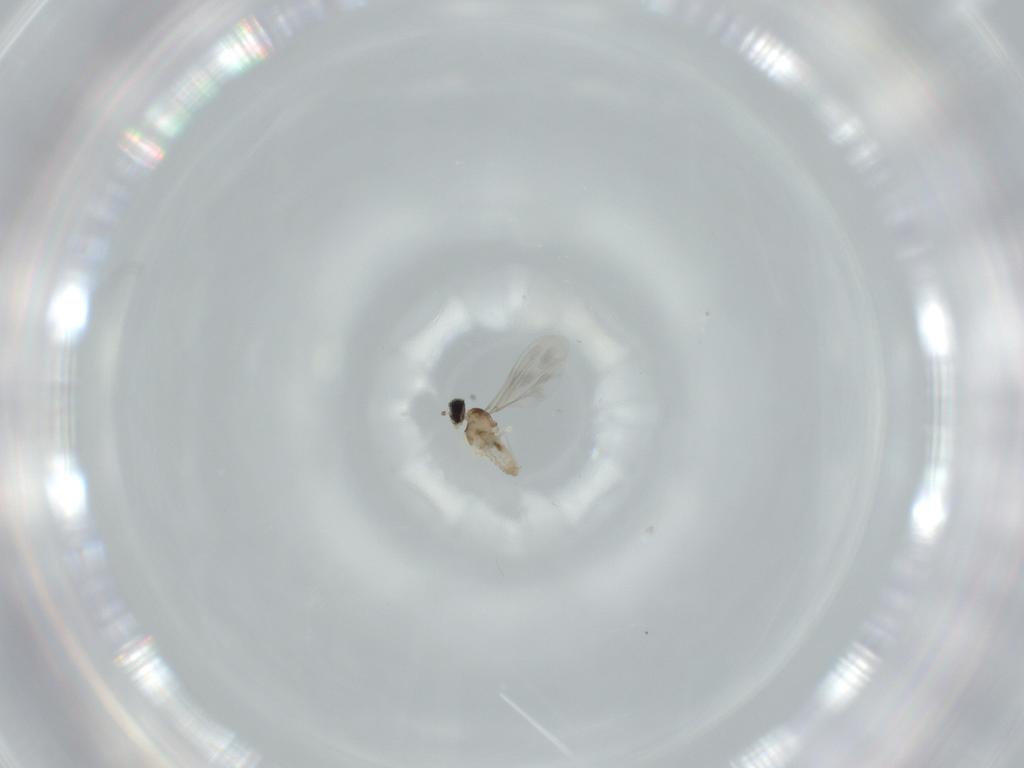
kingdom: Animalia
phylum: Arthropoda
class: Insecta
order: Diptera
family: Cecidomyiidae
